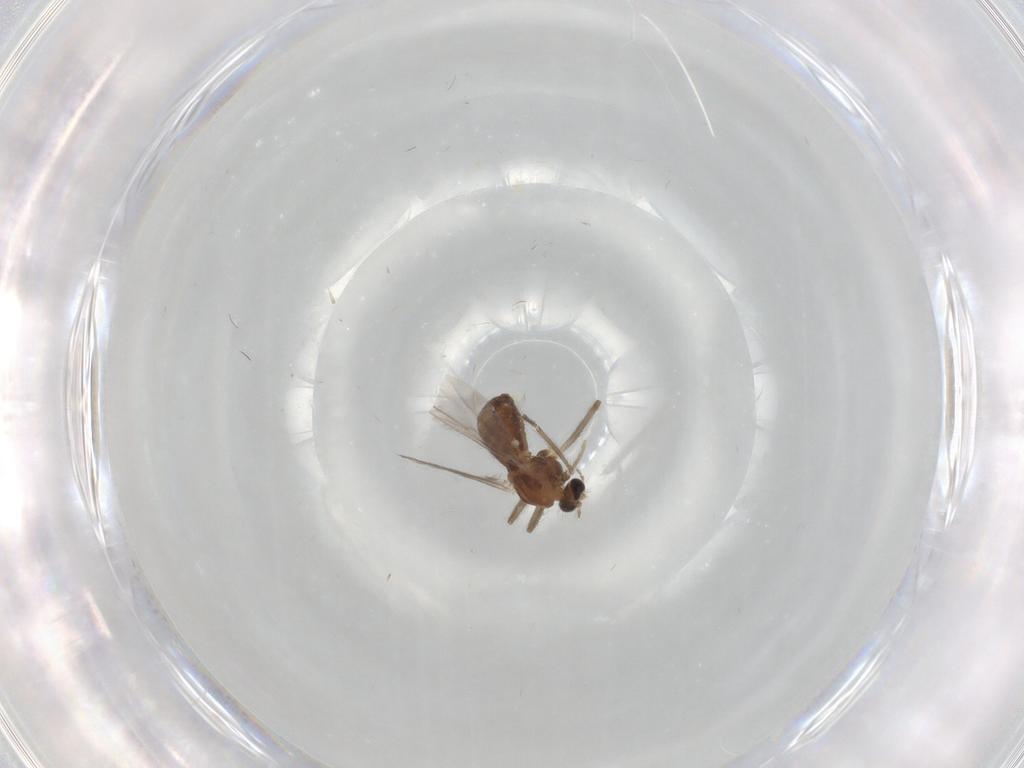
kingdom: Animalia
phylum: Arthropoda
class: Insecta
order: Diptera
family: Chironomidae
